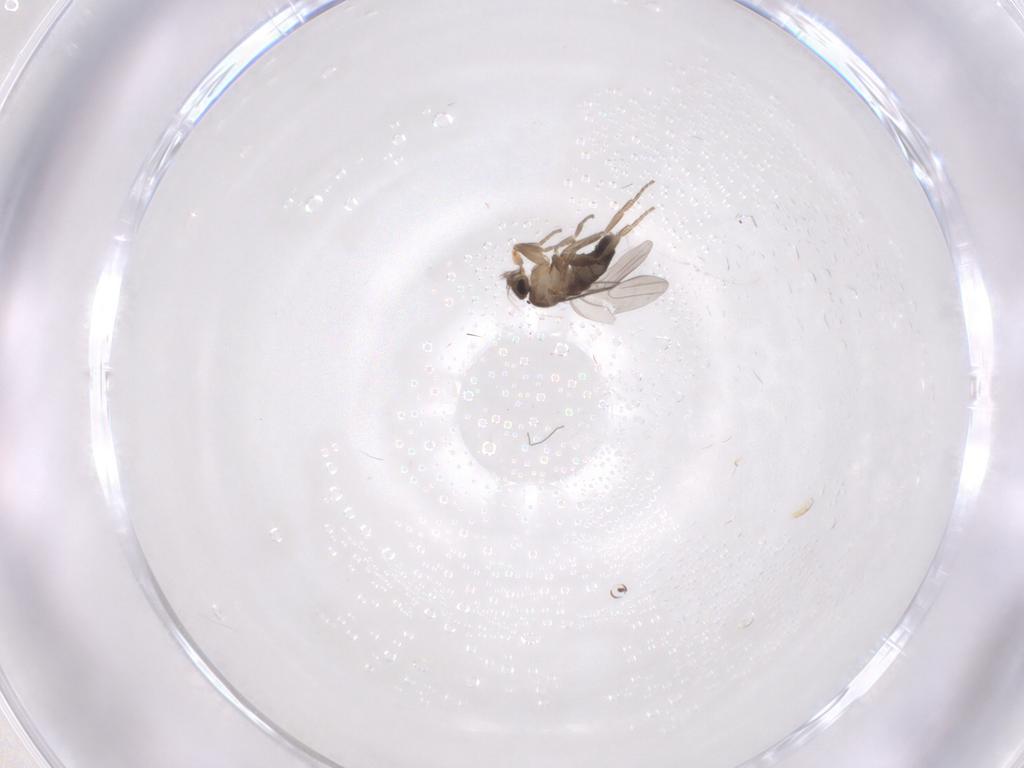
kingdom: Animalia
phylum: Arthropoda
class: Insecta
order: Diptera
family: Phoridae
